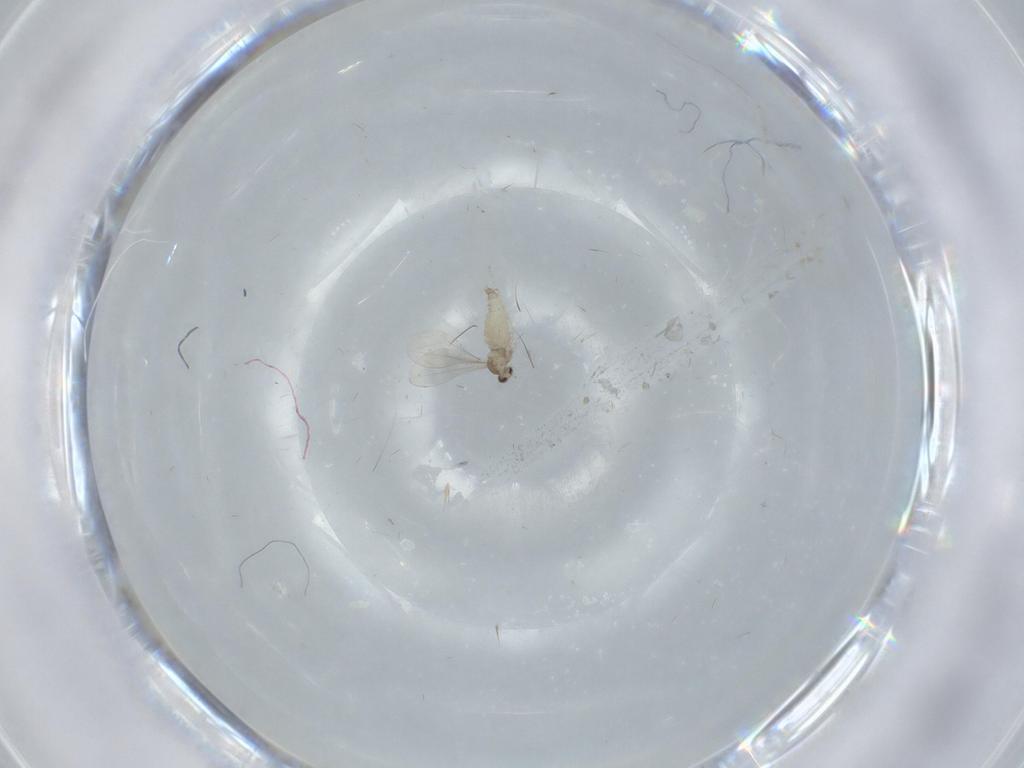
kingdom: Animalia
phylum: Arthropoda
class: Insecta
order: Diptera
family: Cecidomyiidae
